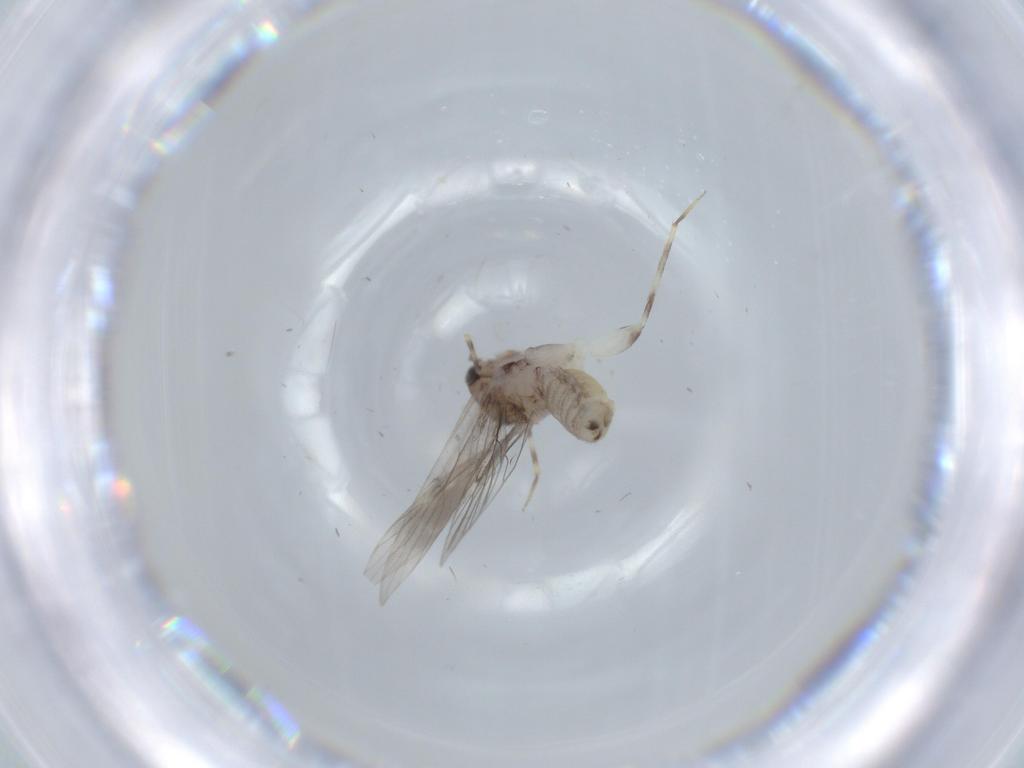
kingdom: Animalia
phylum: Arthropoda
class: Insecta
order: Psocodea
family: Lepidopsocidae
